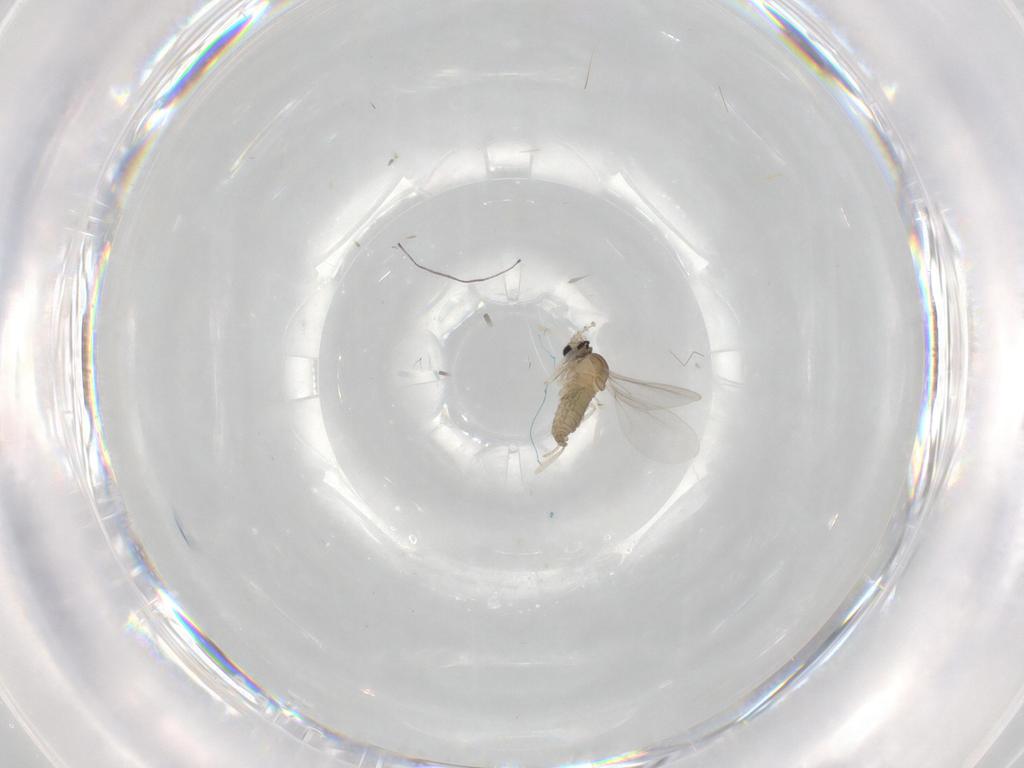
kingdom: Animalia
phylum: Arthropoda
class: Insecta
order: Diptera
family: Cecidomyiidae
